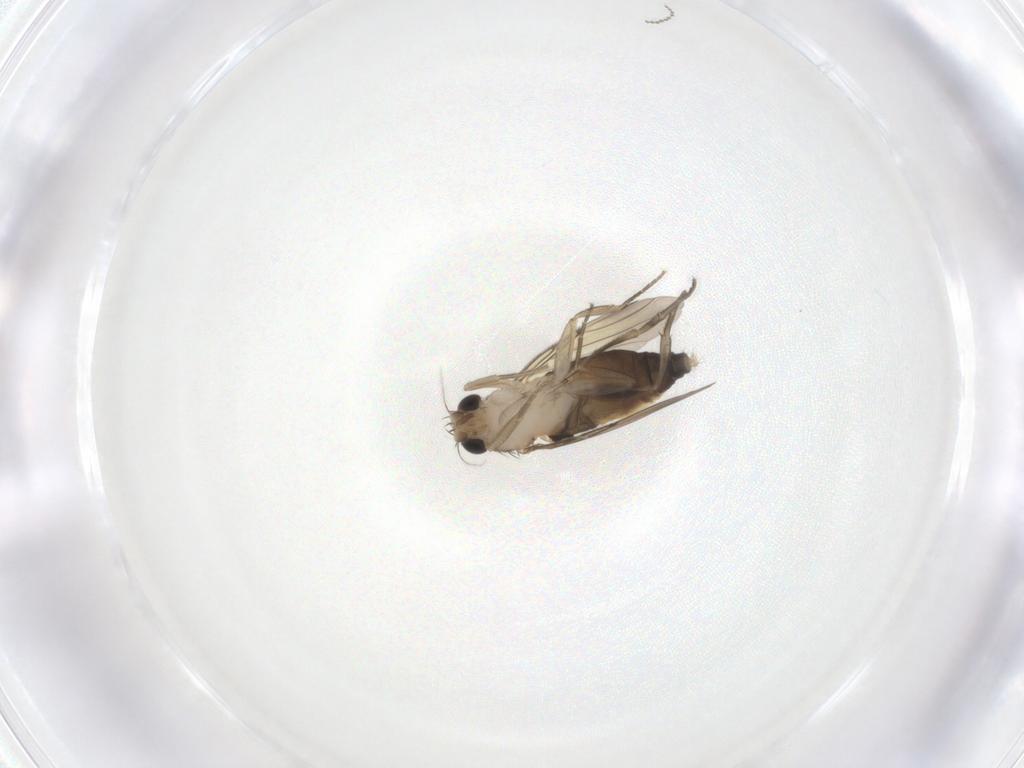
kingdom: Animalia
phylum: Arthropoda
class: Insecta
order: Diptera
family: Cecidomyiidae
